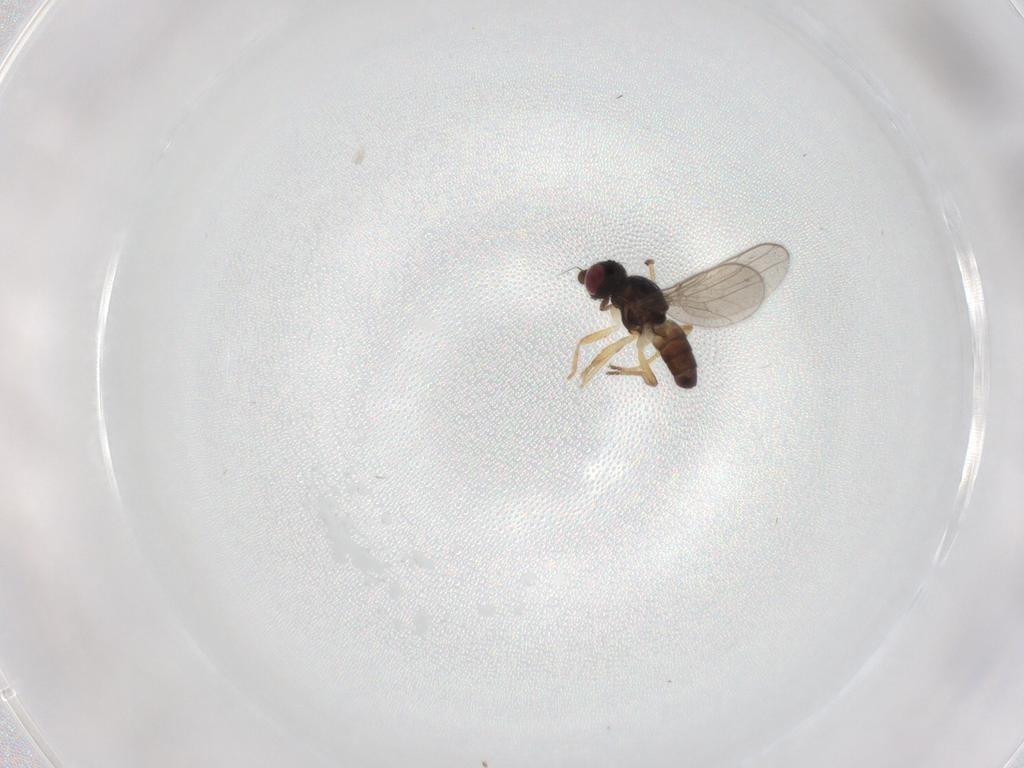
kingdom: Animalia
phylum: Arthropoda
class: Insecta
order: Diptera
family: Chloropidae
